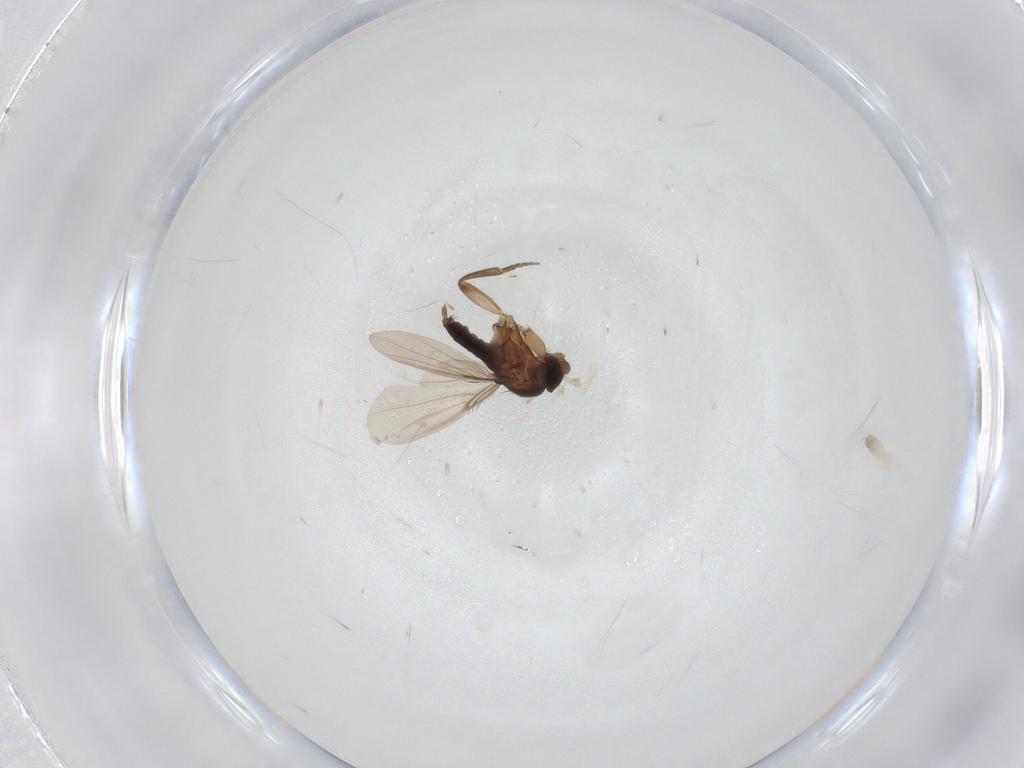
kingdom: Animalia
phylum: Arthropoda
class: Insecta
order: Diptera
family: Phoridae
